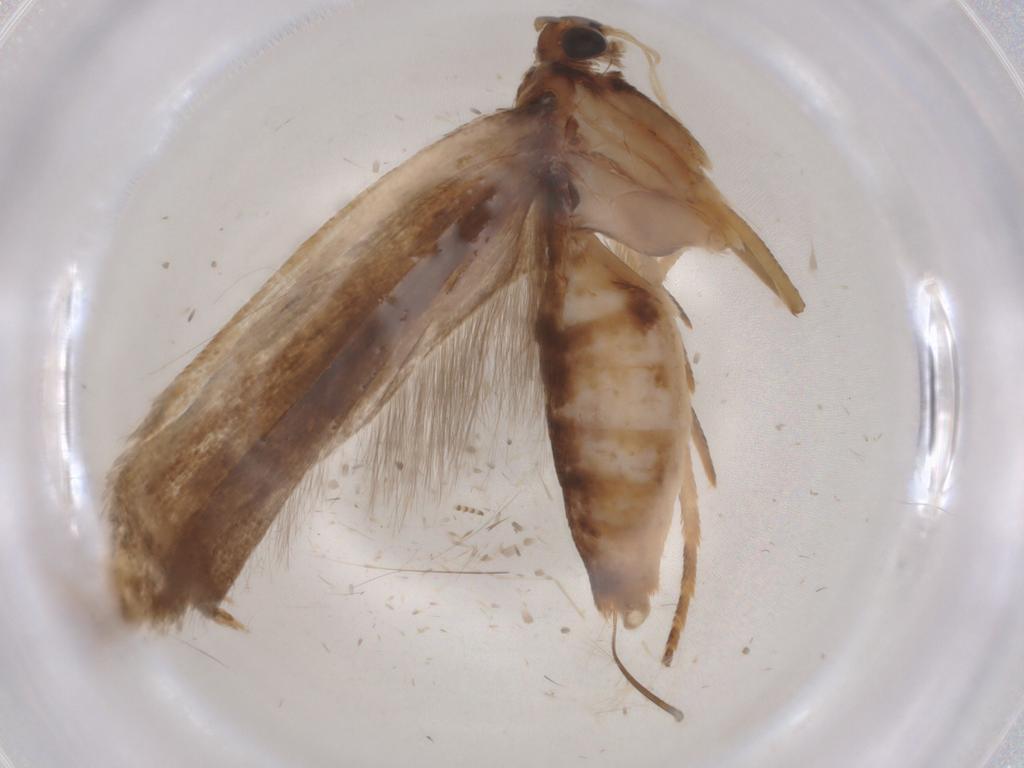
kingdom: Animalia
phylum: Arthropoda
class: Insecta
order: Lepidoptera
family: Gelechiidae
